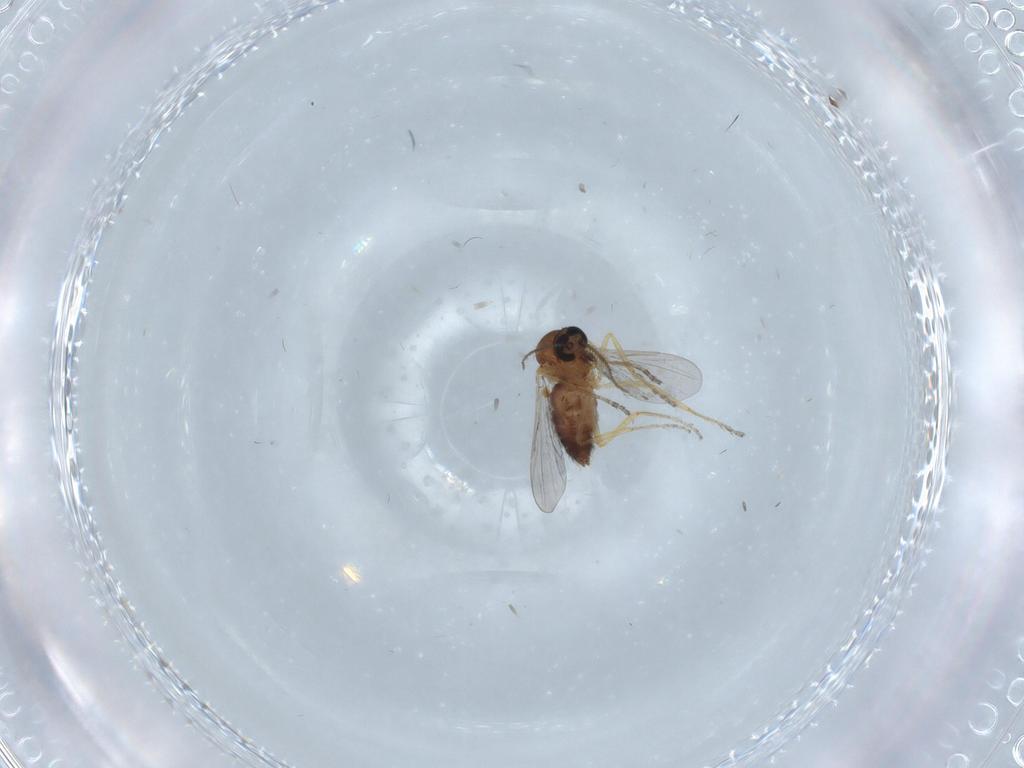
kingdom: Animalia
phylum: Arthropoda
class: Insecta
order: Diptera
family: Ceratopogonidae
